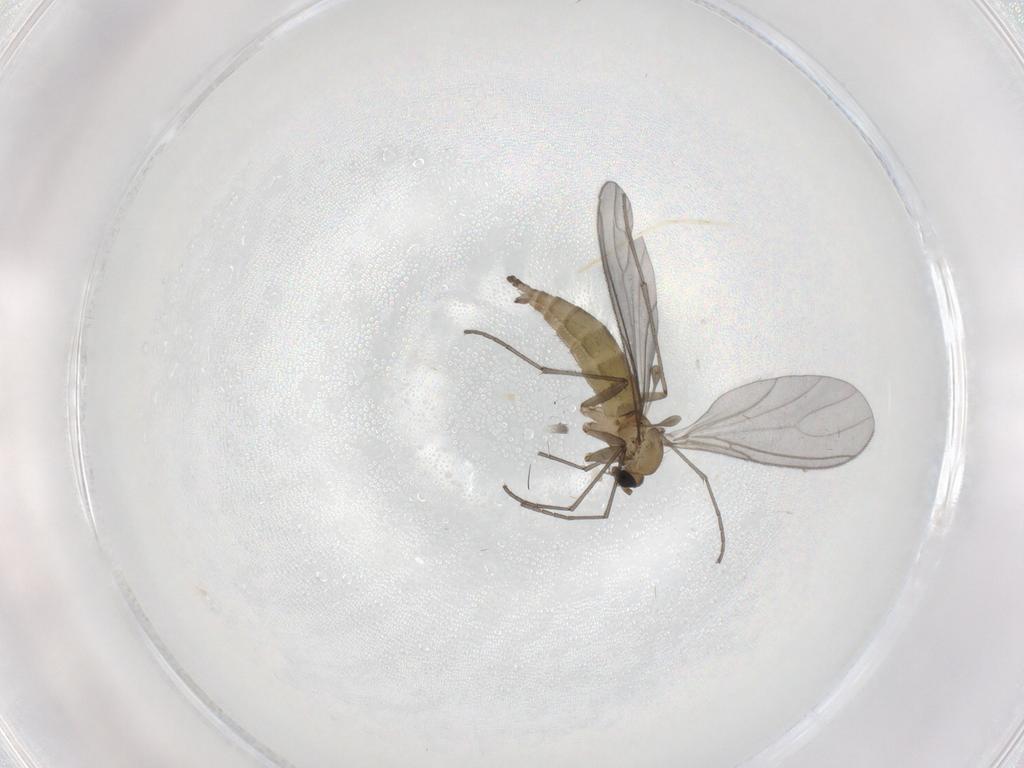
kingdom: Animalia
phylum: Arthropoda
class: Insecta
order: Diptera
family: Sciaridae
